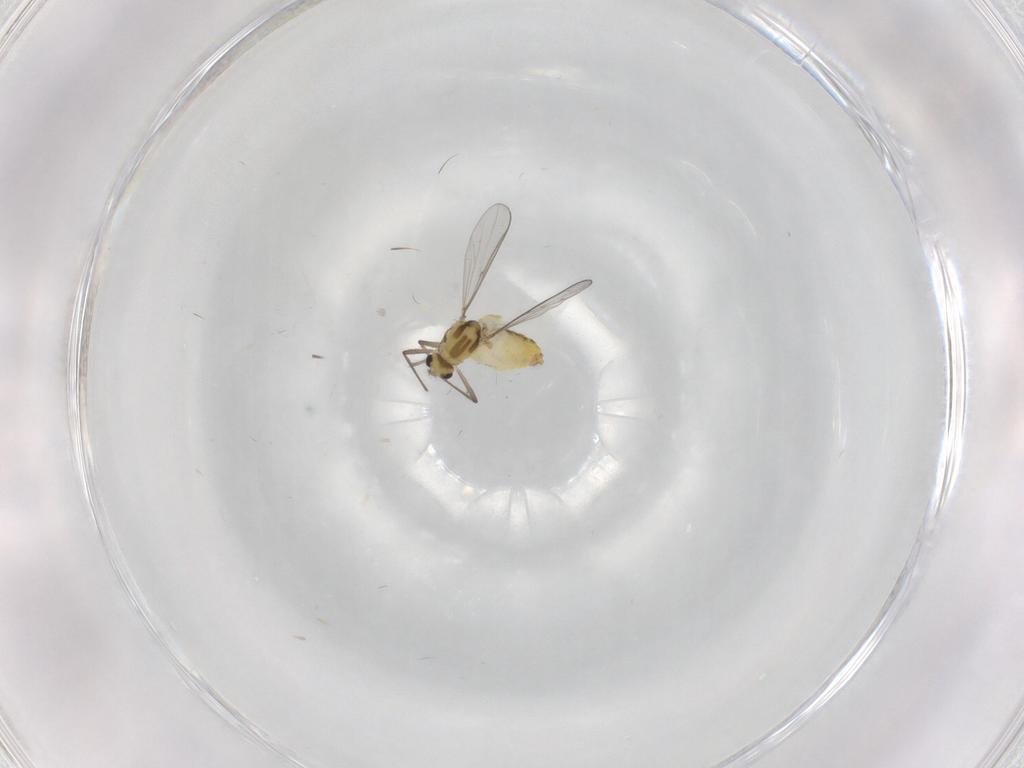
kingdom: Animalia
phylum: Arthropoda
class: Insecta
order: Diptera
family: Chironomidae
